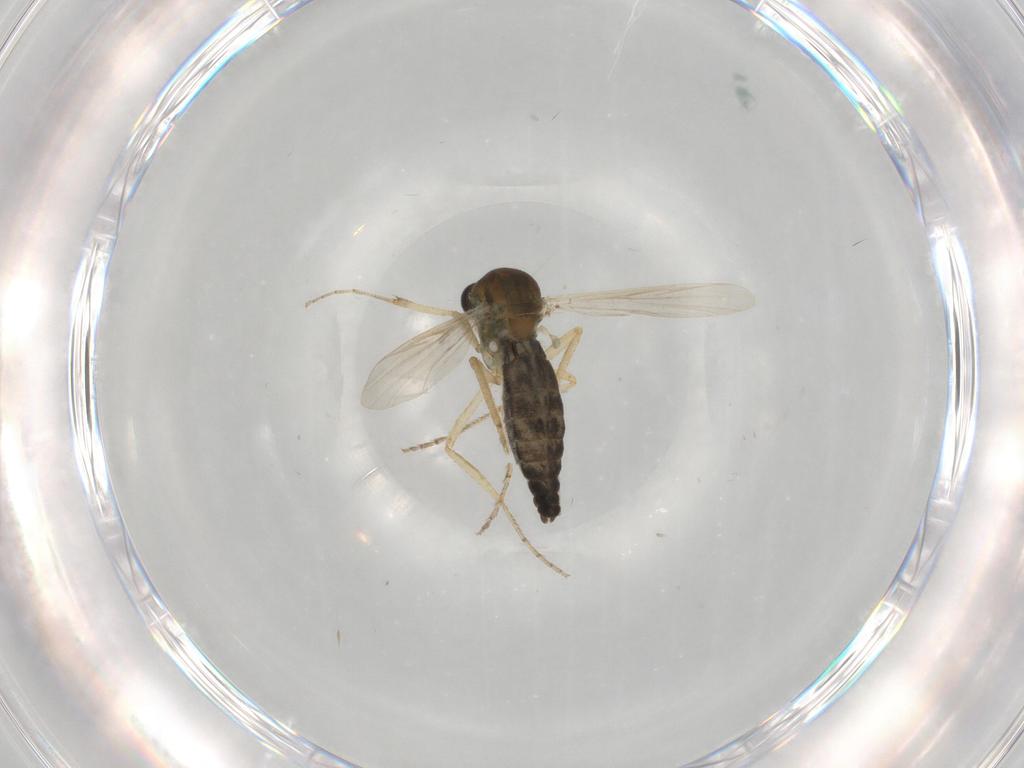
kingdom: Animalia
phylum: Arthropoda
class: Insecta
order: Diptera
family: Ceratopogonidae
